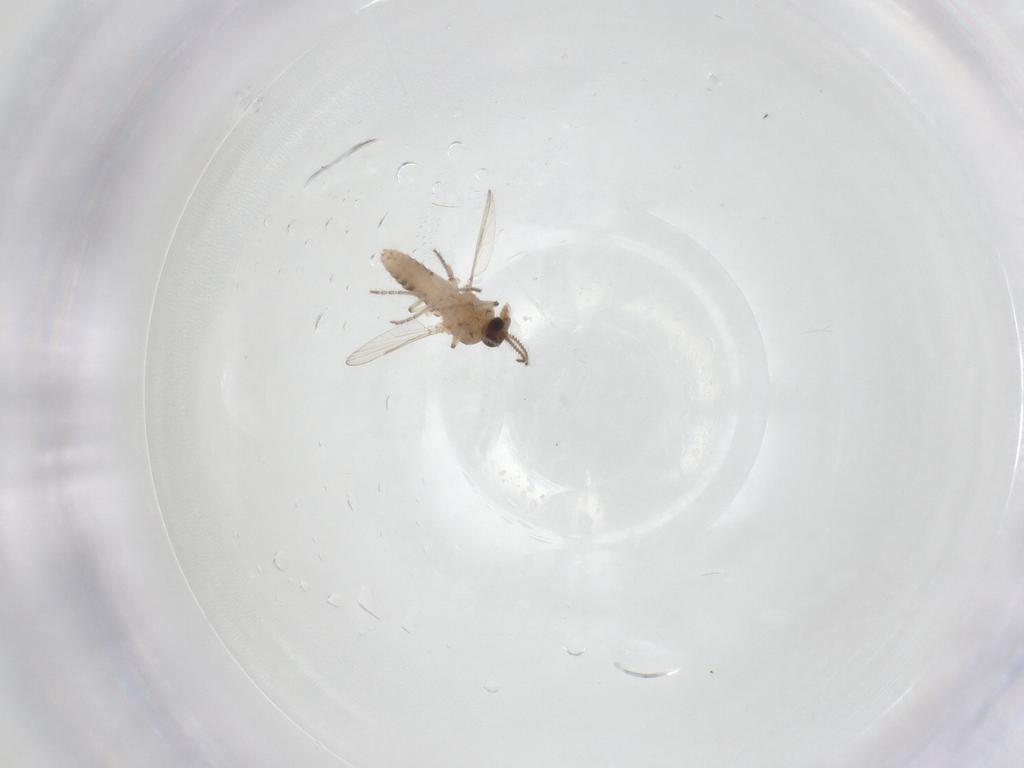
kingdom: Animalia
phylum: Arthropoda
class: Insecta
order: Diptera
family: Cecidomyiidae
